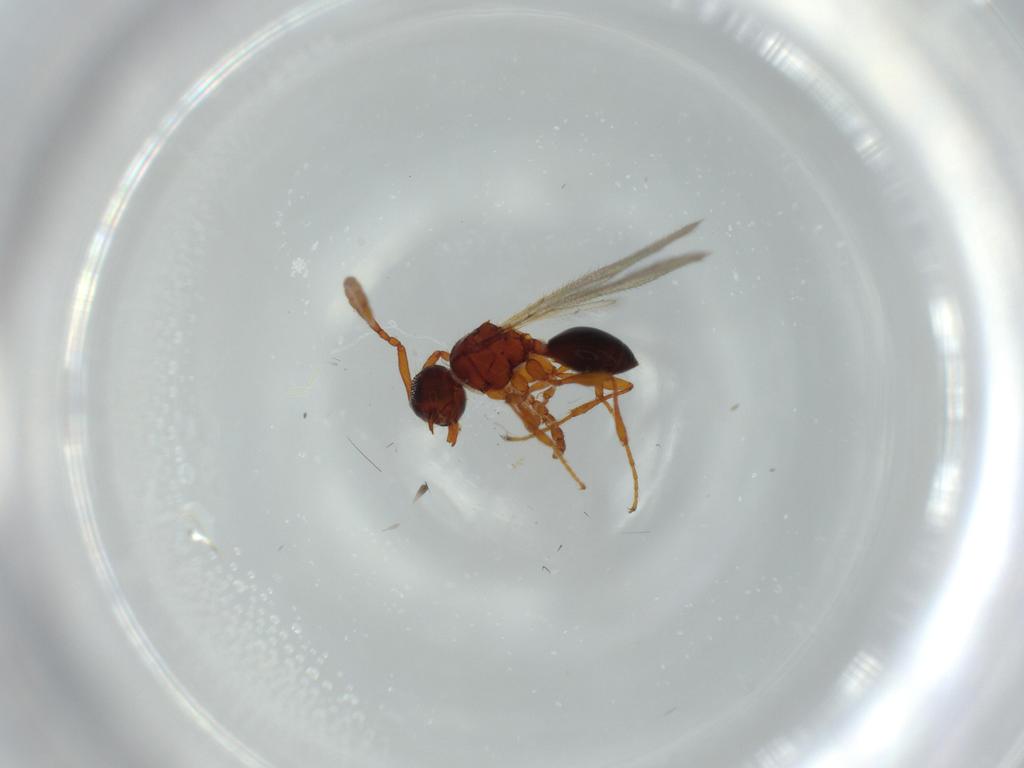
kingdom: Animalia
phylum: Arthropoda
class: Insecta
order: Hymenoptera
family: Diapriidae
